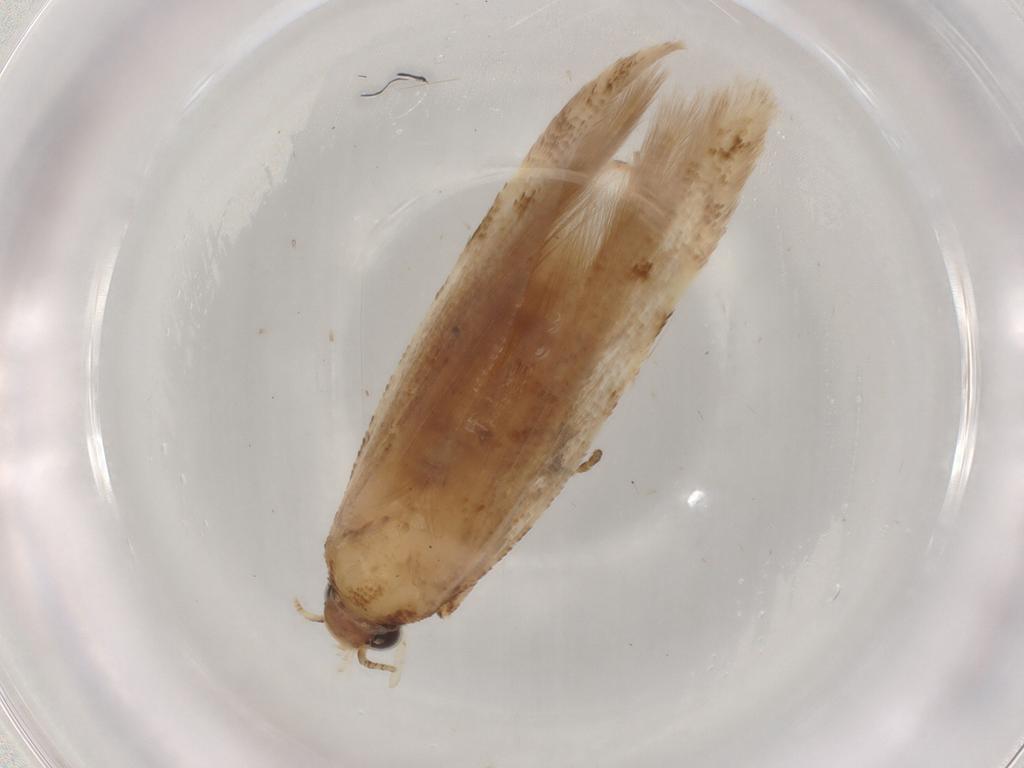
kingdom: Animalia
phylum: Arthropoda
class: Insecta
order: Lepidoptera
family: Gelechiidae
